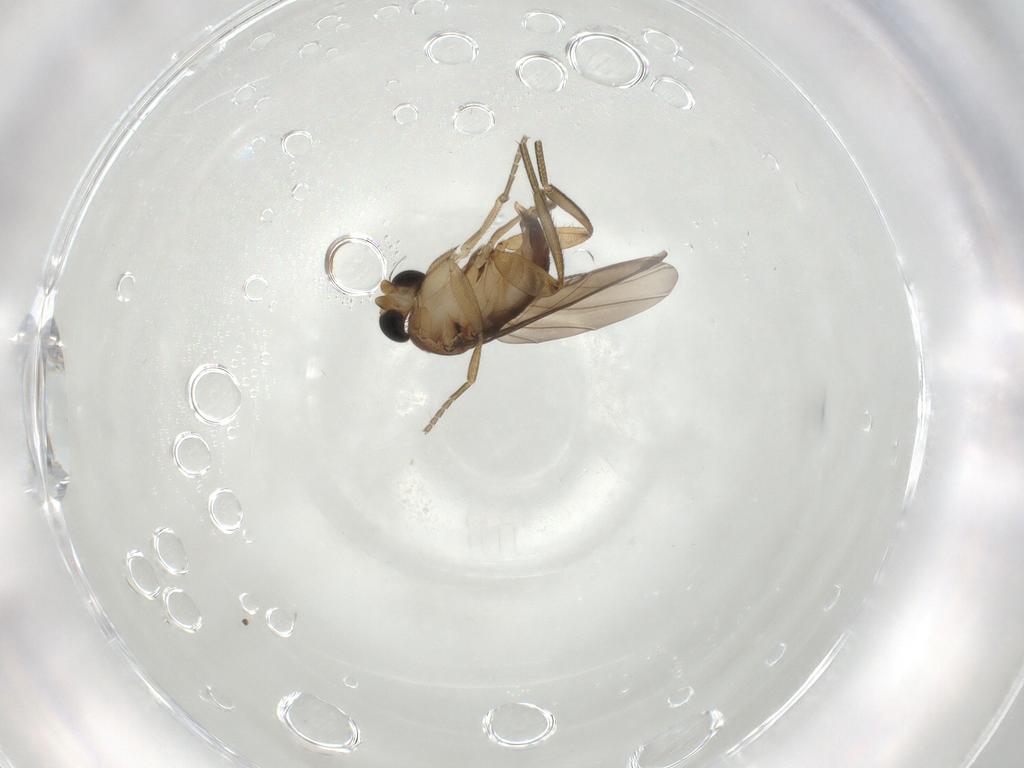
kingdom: Animalia
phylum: Arthropoda
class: Insecta
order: Diptera
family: Phoridae
